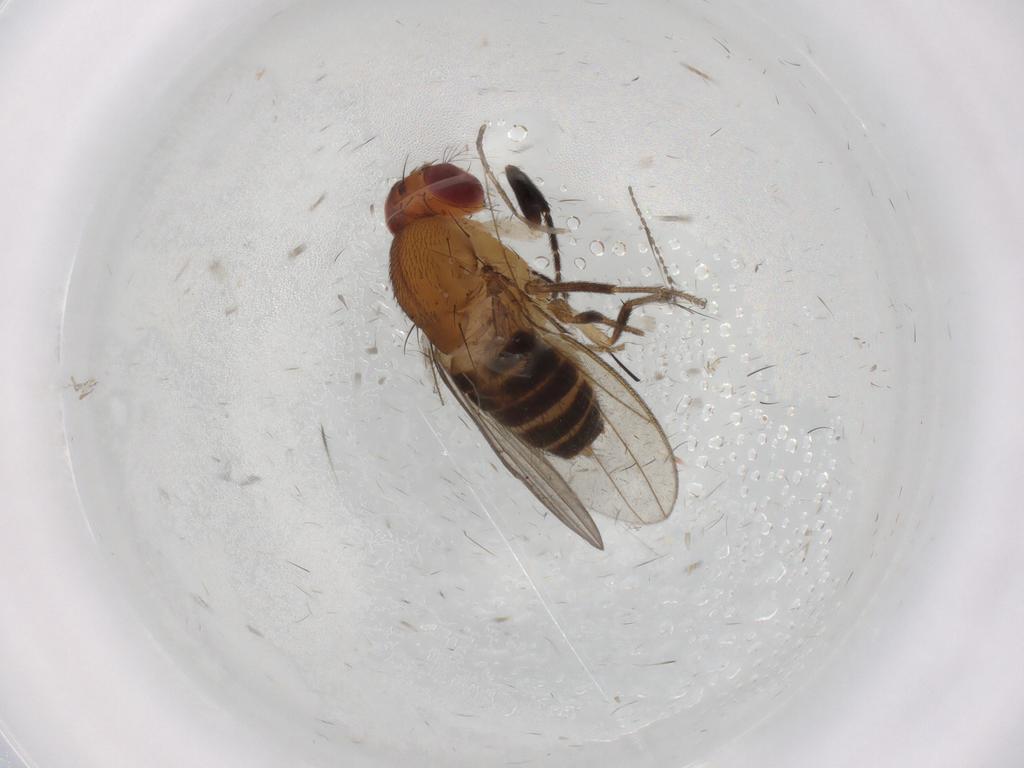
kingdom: Animalia
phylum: Arthropoda
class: Insecta
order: Diptera
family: Drosophilidae
